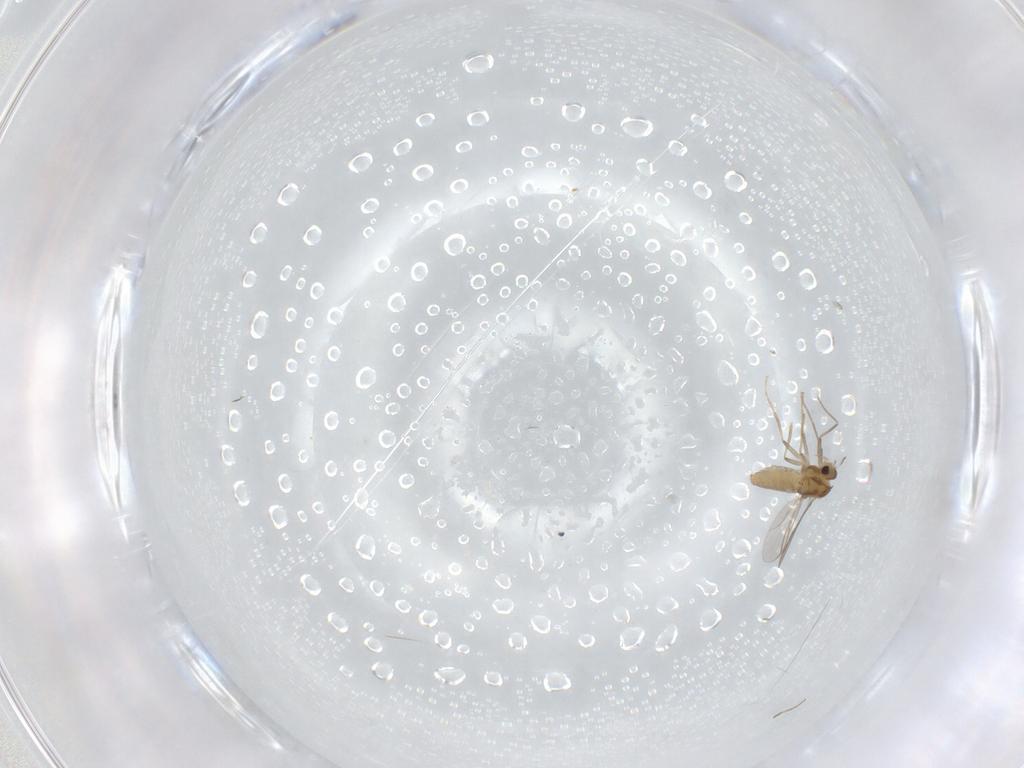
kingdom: Animalia
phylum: Arthropoda
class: Insecta
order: Diptera
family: Chironomidae
